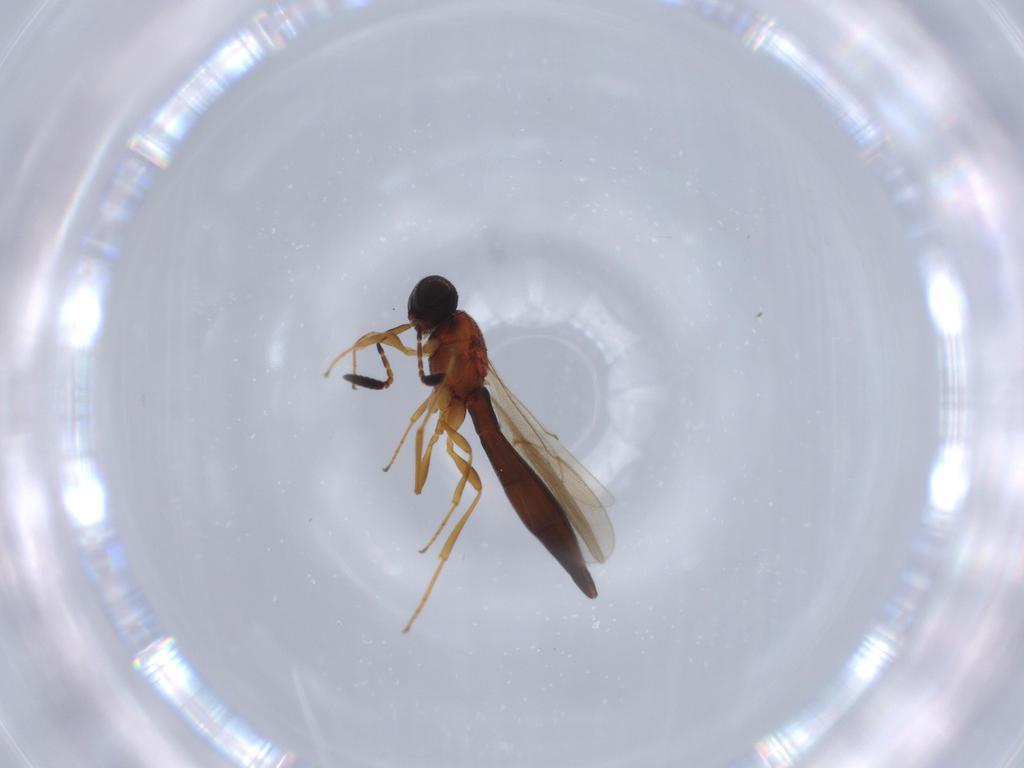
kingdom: Animalia
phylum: Arthropoda
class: Insecta
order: Hymenoptera
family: Scelionidae
